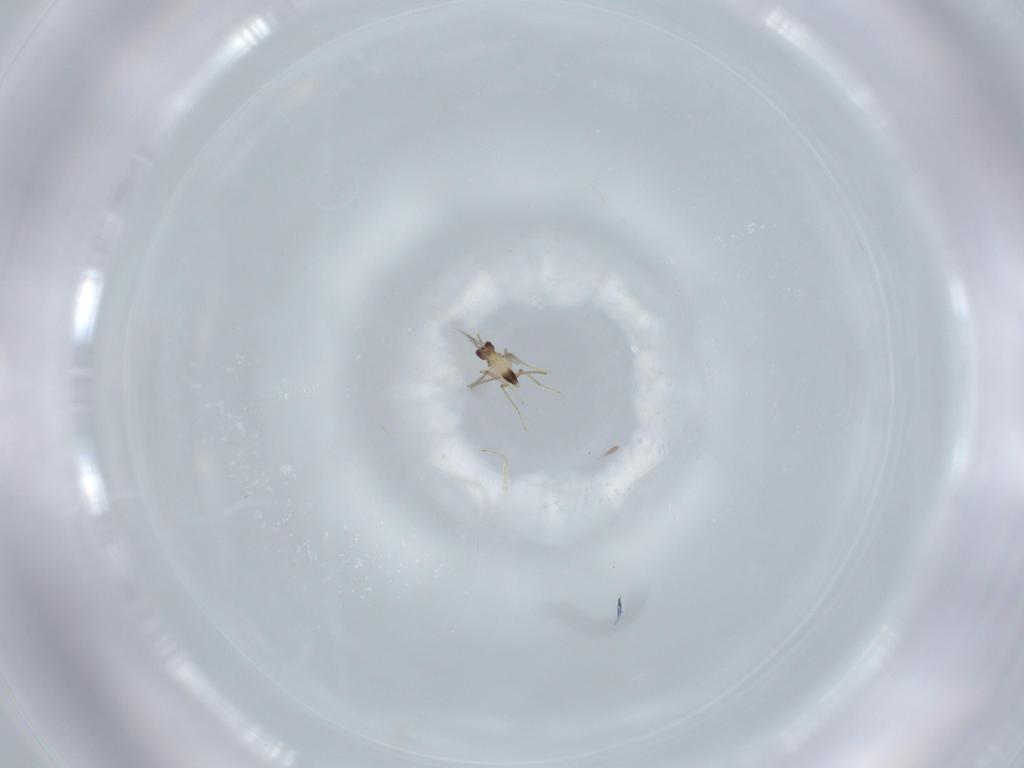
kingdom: Animalia
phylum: Arthropoda
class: Insecta
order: Hymenoptera
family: Mymaridae
